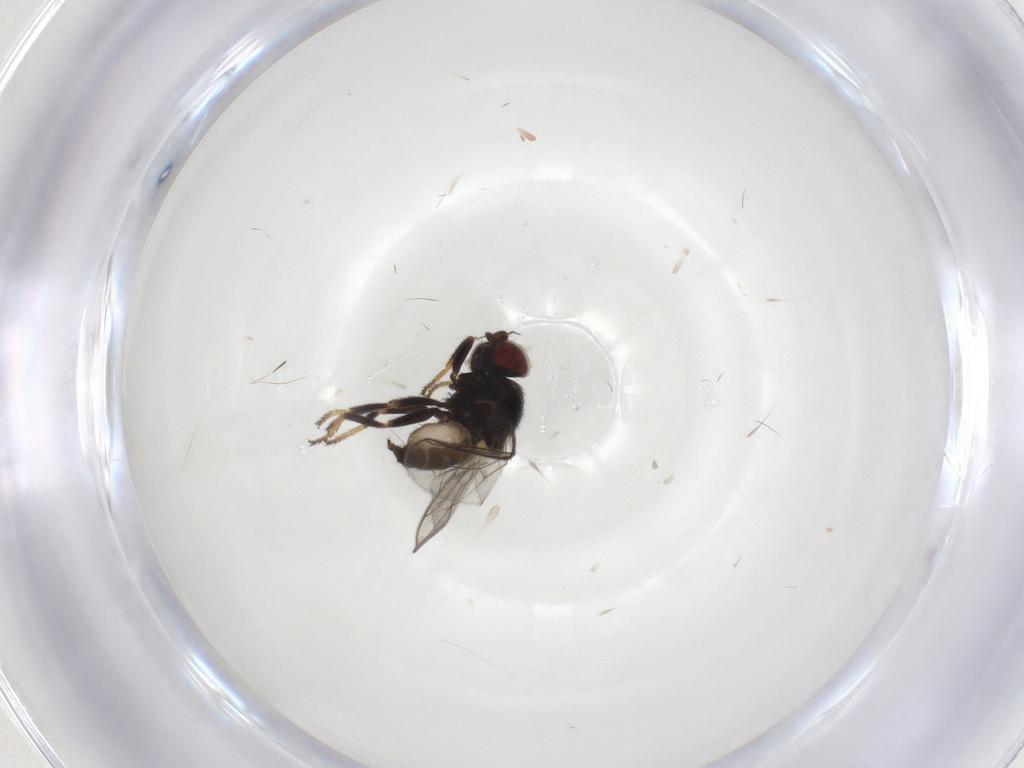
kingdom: Animalia
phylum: Arthropoda
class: Insecta
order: Diptera
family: Chloropidae
